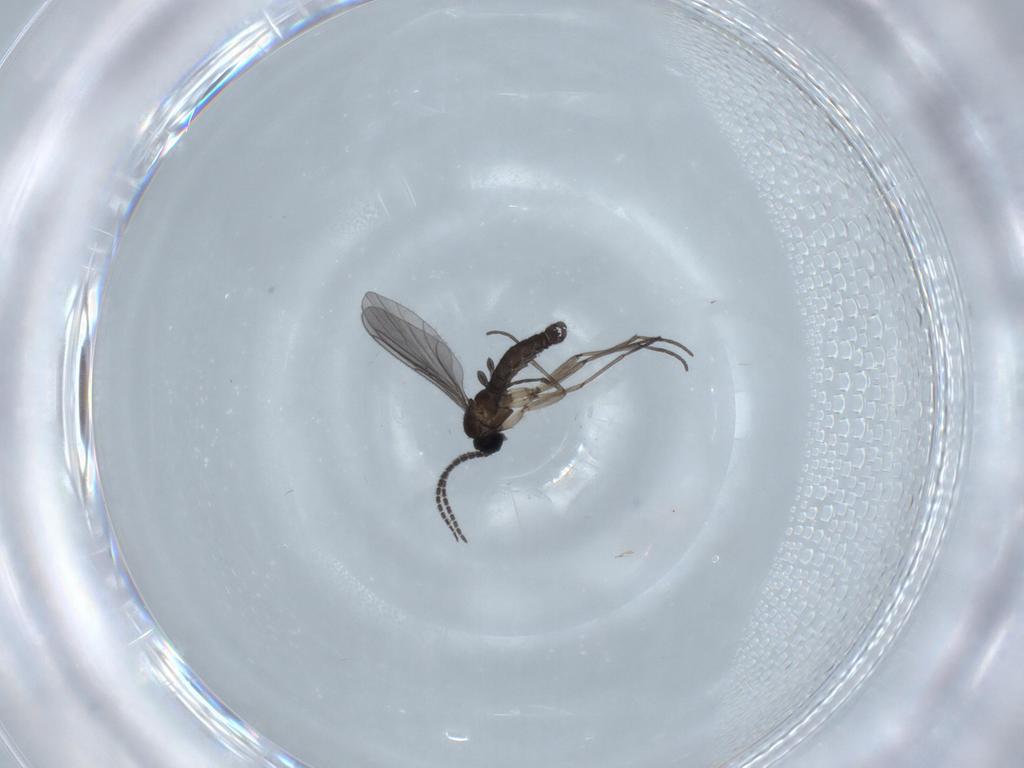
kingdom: Animalia
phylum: Arthropoda
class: Insecta
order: Diptera
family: Sciaridae
